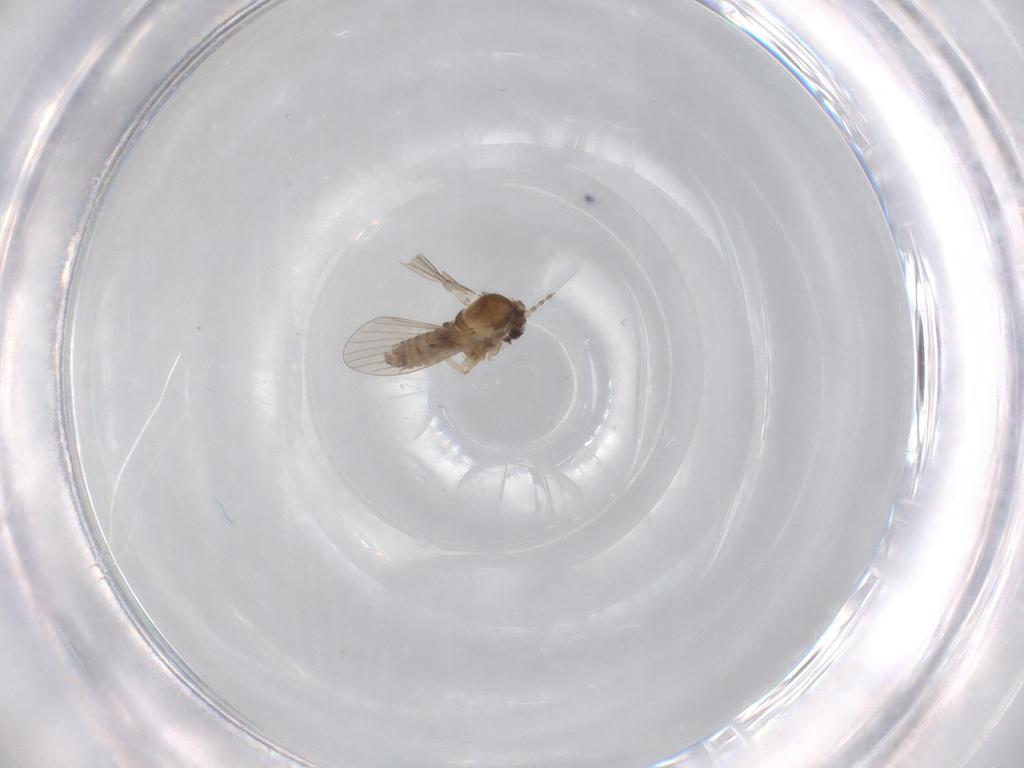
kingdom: Animalia
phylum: Arthropoda
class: Insecta
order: Diptera
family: Psychodidae
